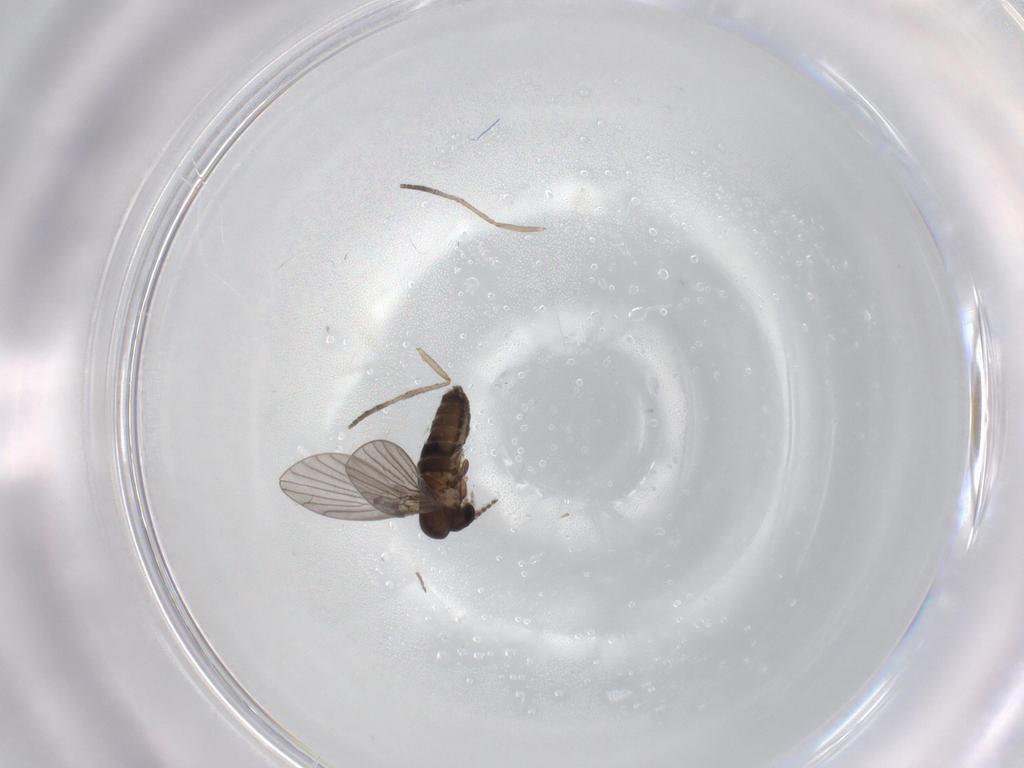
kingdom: Animalia
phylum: Arthropoda
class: Insecta
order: Diptera
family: Cecidomyiidae
